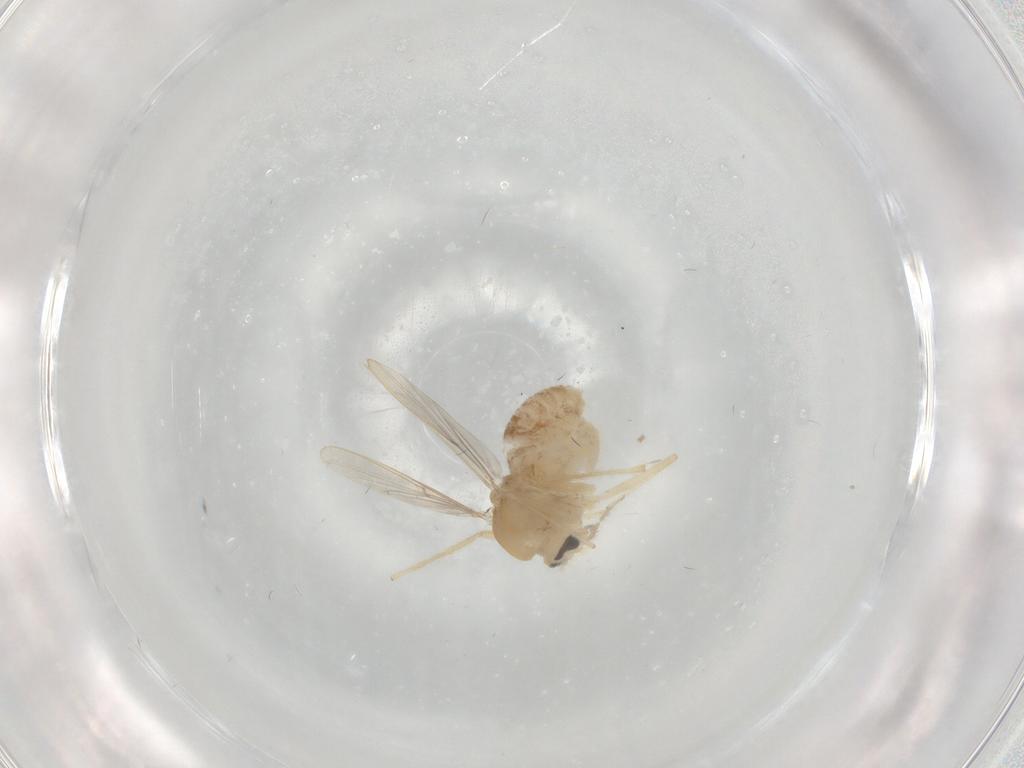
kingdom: Animalia
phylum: Arthropoda
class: Insecta
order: Diptera
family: Chironomidae
